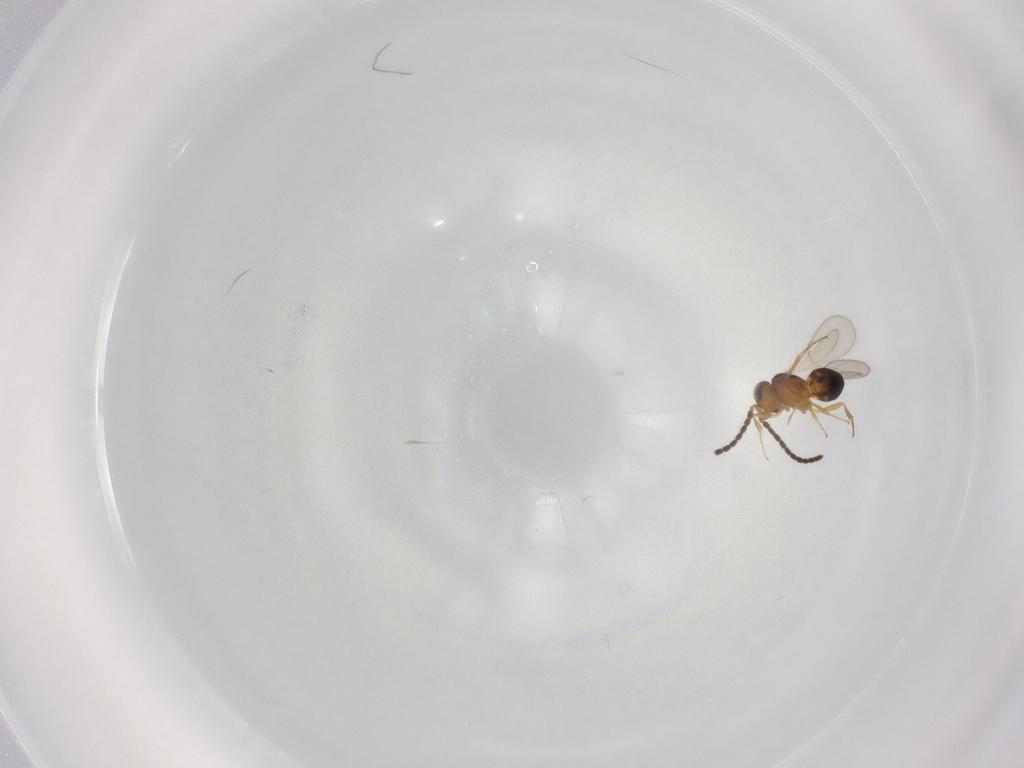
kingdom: Animalia
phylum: Arthropoda
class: Insecta
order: Hymenoptera
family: Scelionidae
